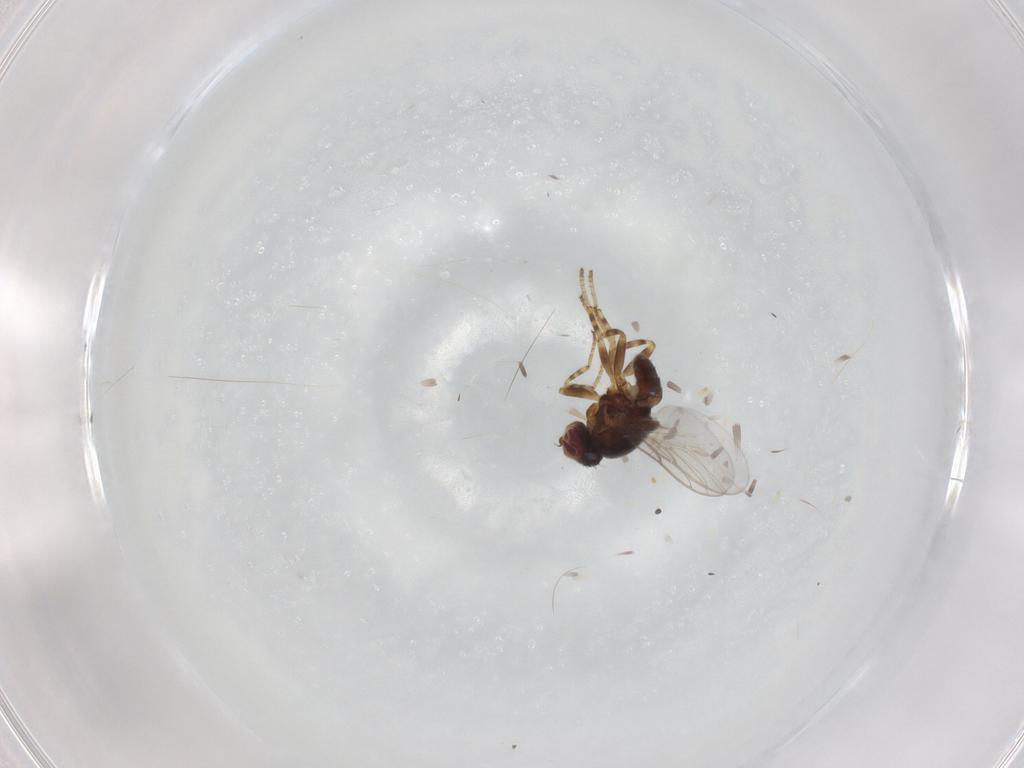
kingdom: Animalia
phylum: Arthropoda
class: Insecta
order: Diptera
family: Chloropidae
